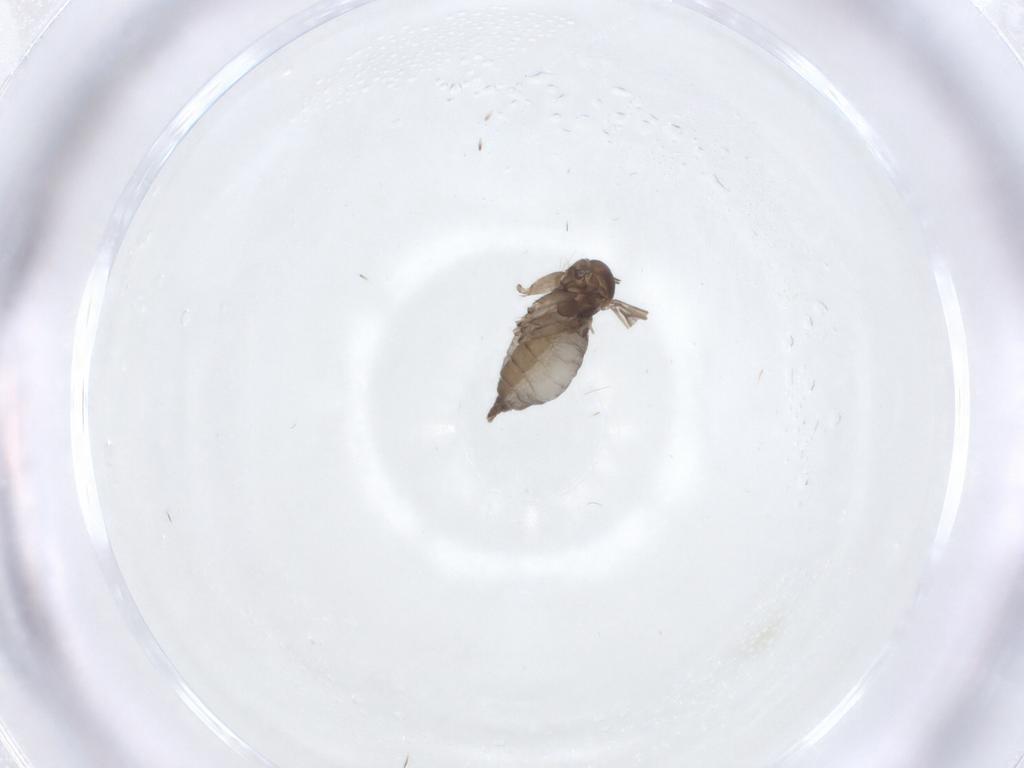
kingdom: Animalia
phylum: Arthropoda
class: Insecta
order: Diptera
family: Sciaridae
